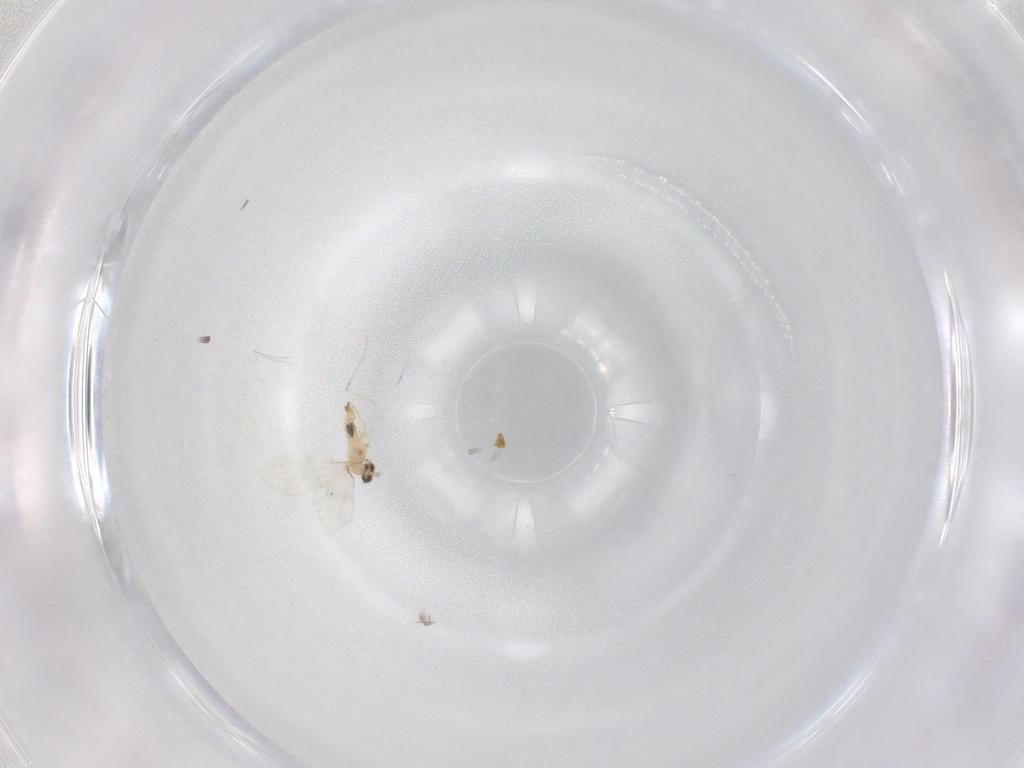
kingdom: Animalia
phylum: Arthropoda
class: Insecta
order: Diptera
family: Cecidomyiidae
